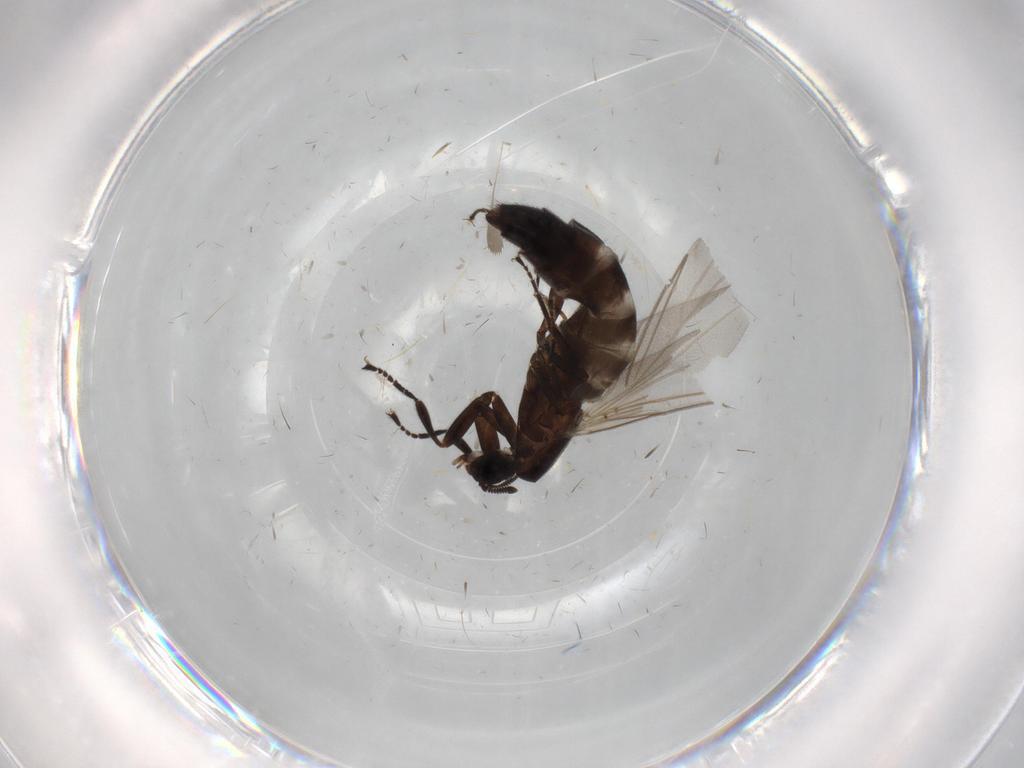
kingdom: Animalia
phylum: Arthropoda
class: Insecta
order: Diptera
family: Scatopsidae
